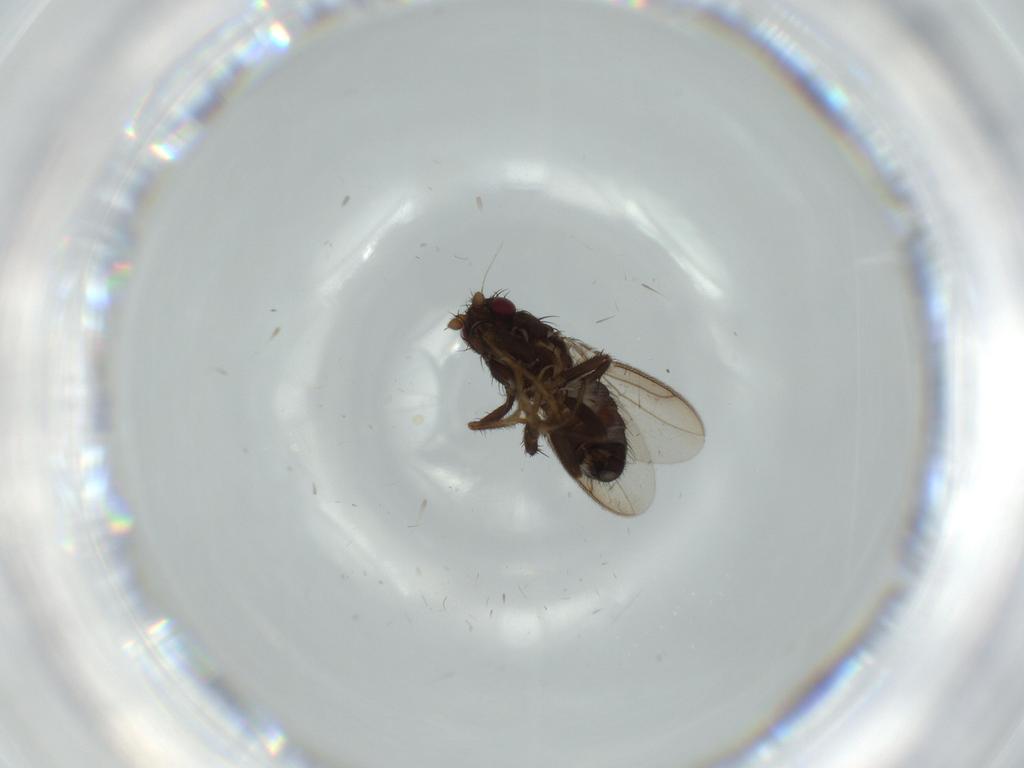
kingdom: Animalia
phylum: Arthropoda
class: Insecta
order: Diptera
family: Sphaeroceridae
